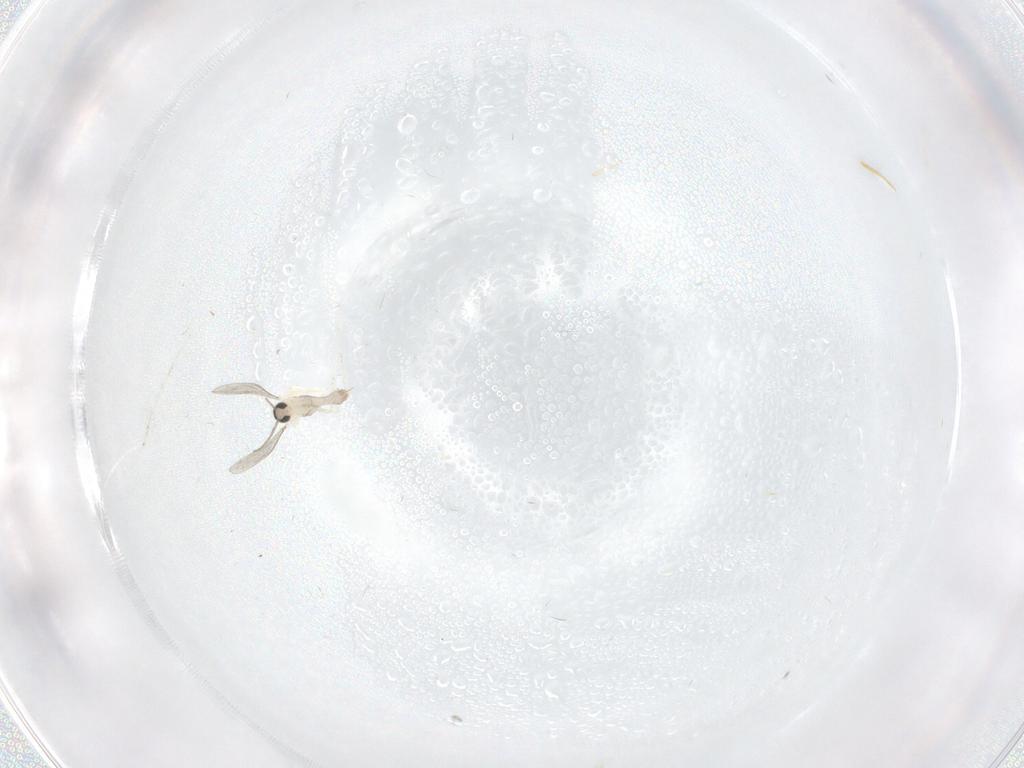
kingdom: Animalia
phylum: Arthropoda
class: Insecta
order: Diptera
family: Cecidomyiidae
